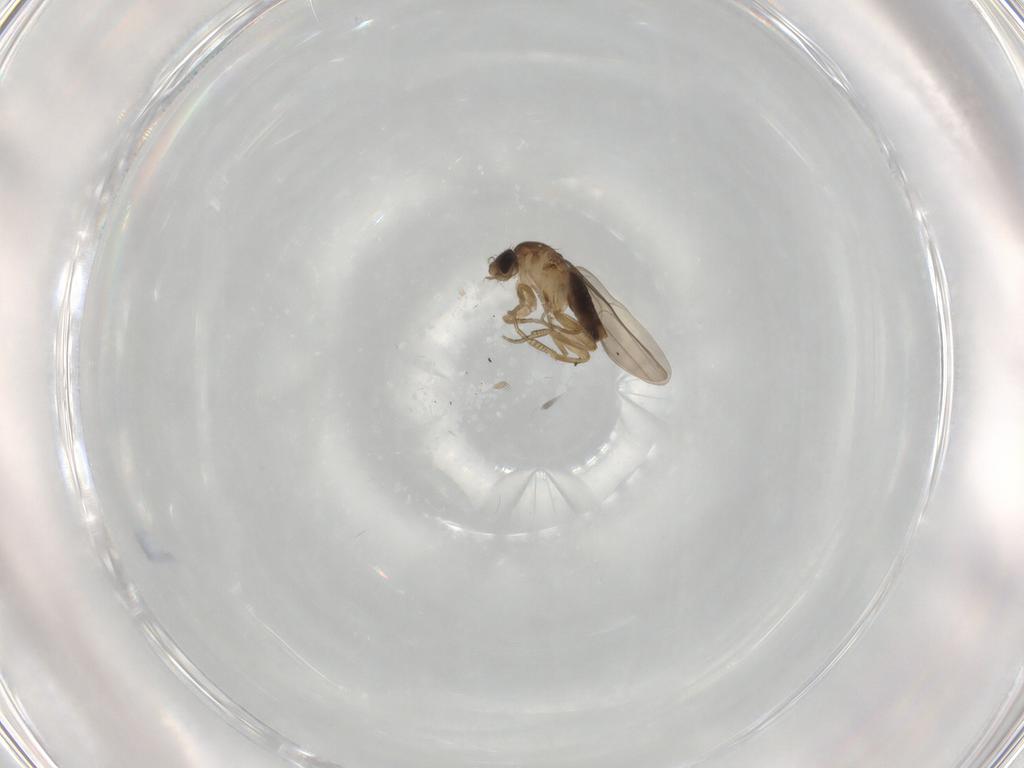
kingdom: Animalia
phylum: Arthropoda
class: Insecta
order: Diptera
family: Phoridae
